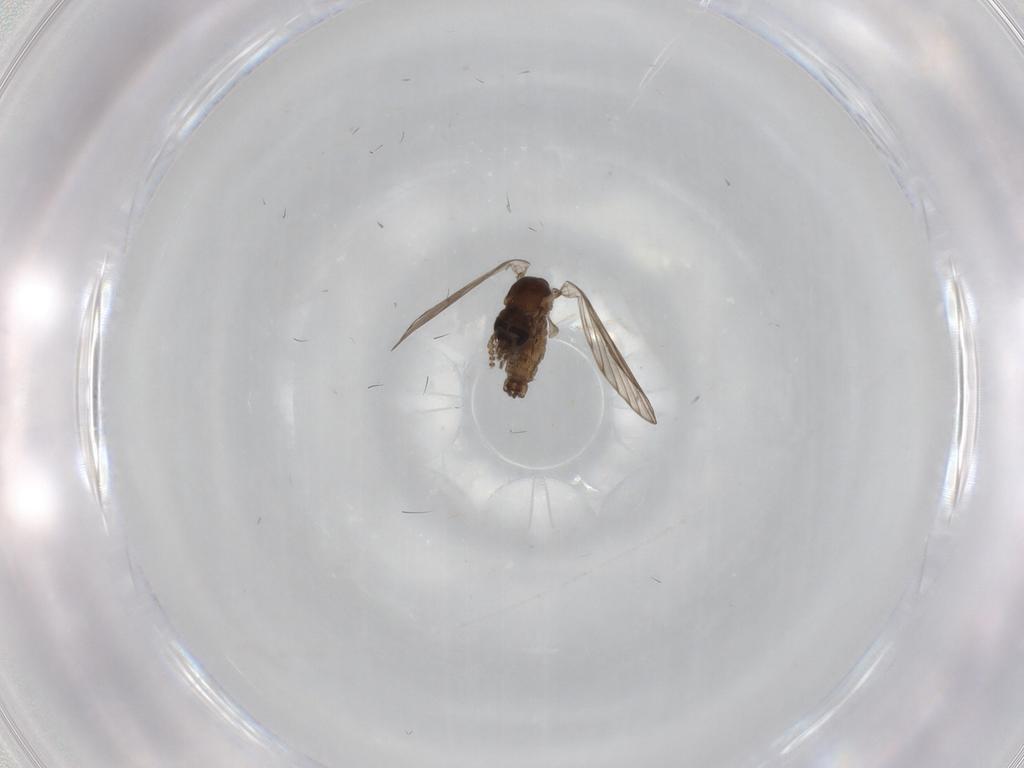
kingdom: Animalia
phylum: Arthropoda
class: Insecta
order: Diptera
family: Psychodidae
